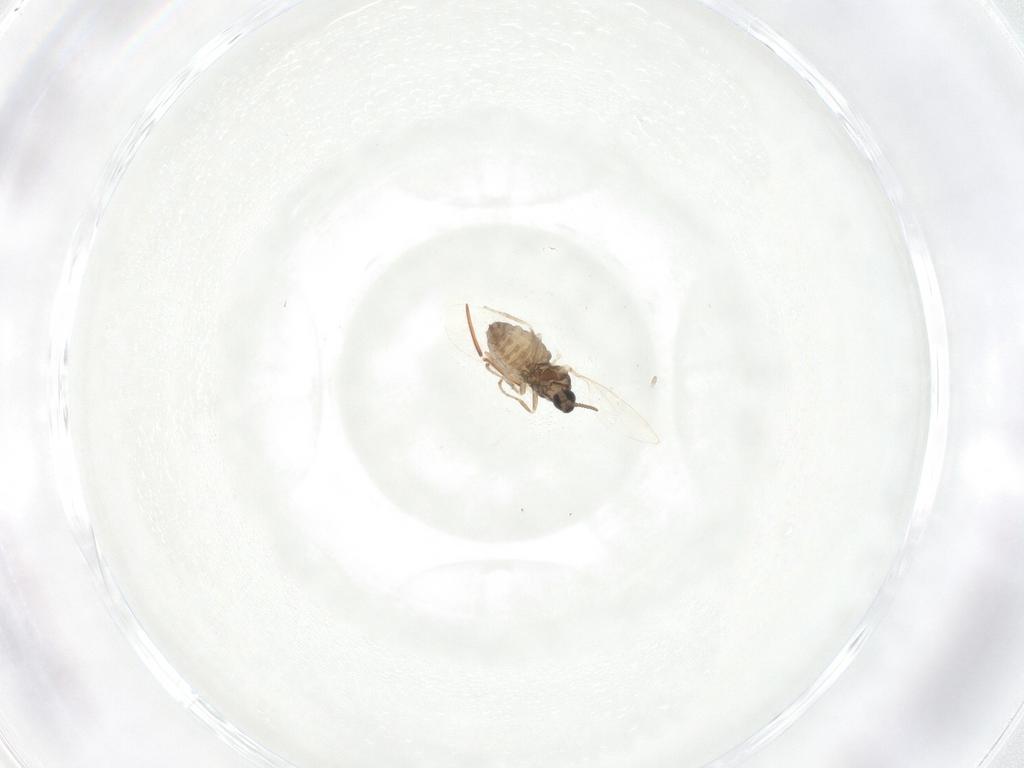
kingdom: Animalia
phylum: Arthropoda
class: Insecta
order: Diptera
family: Cecidomyiidae
